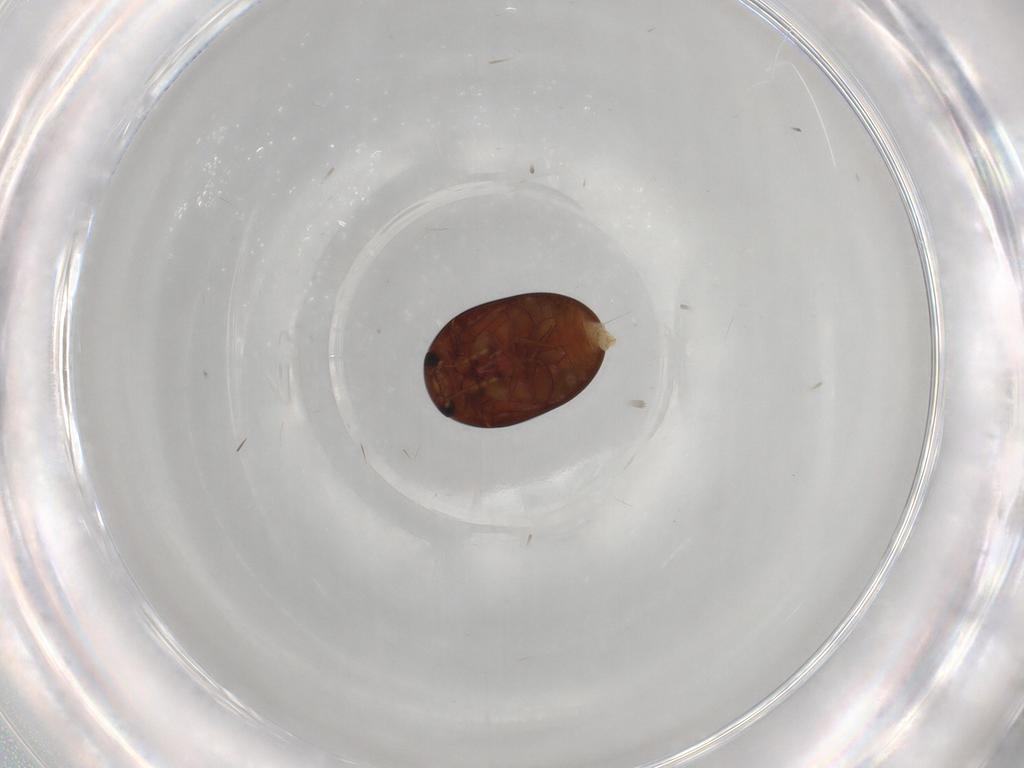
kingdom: Animalia
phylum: Arthropoda
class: Insecta
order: Coleoptera
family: Phalacridae
